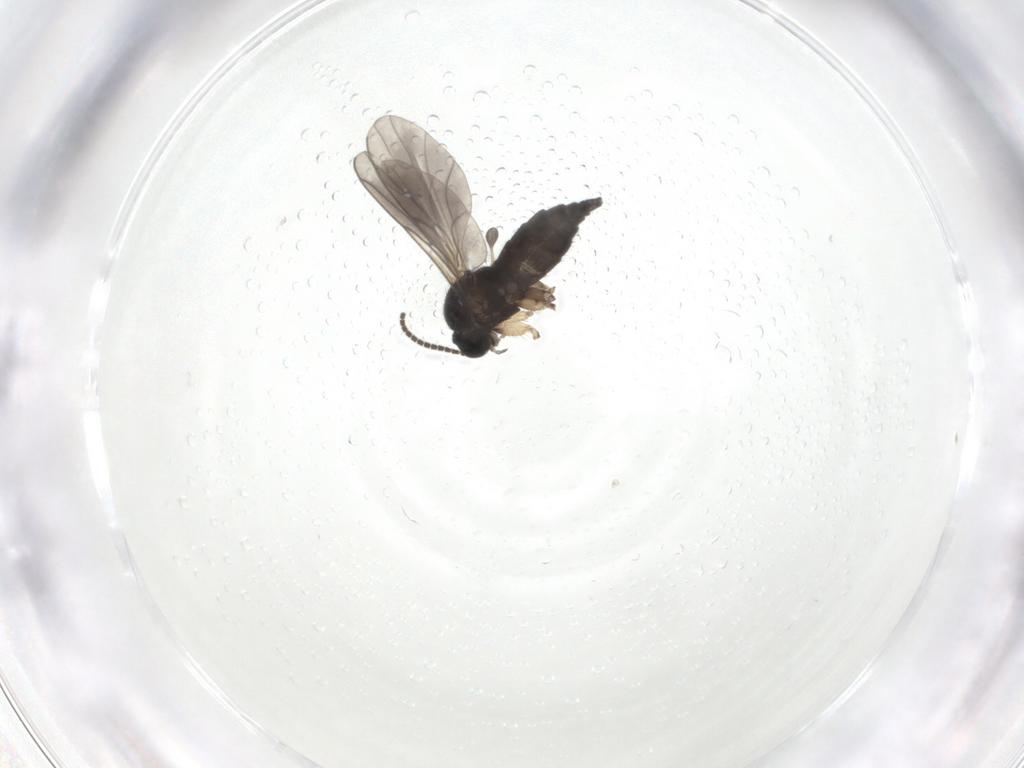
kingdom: Animalia
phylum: Arthropoda
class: Insecta
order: Diptera
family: Sciaridae
